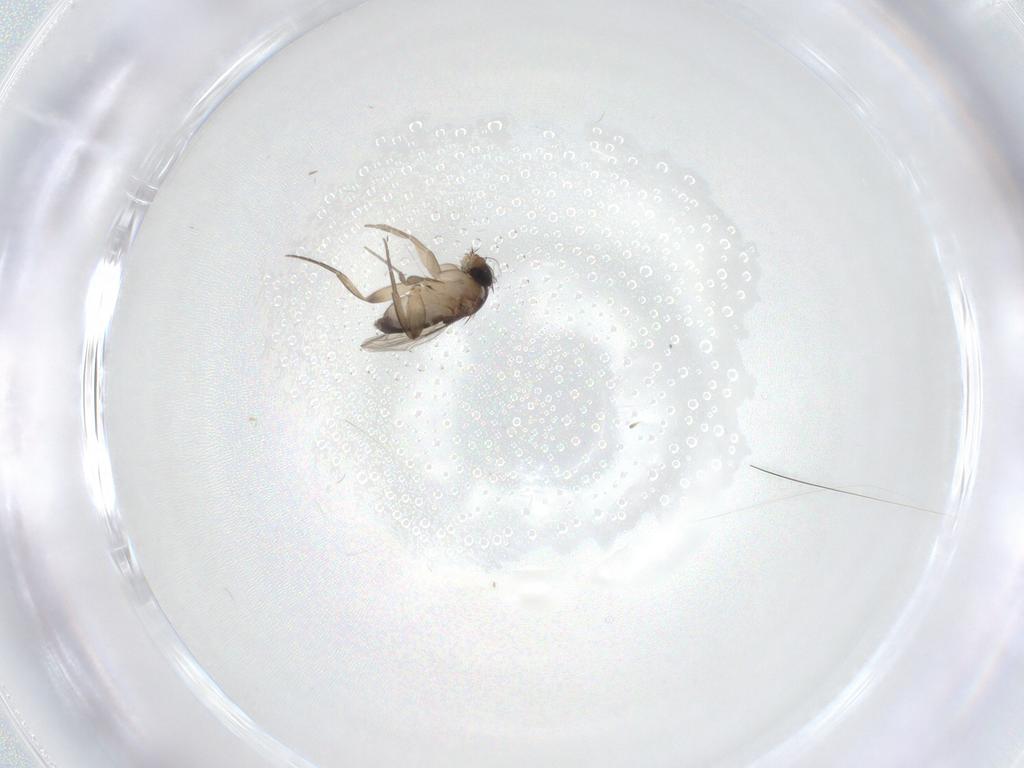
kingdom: Animalia
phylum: Arthropoda
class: Insecta
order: Diptera
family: Phoridae
